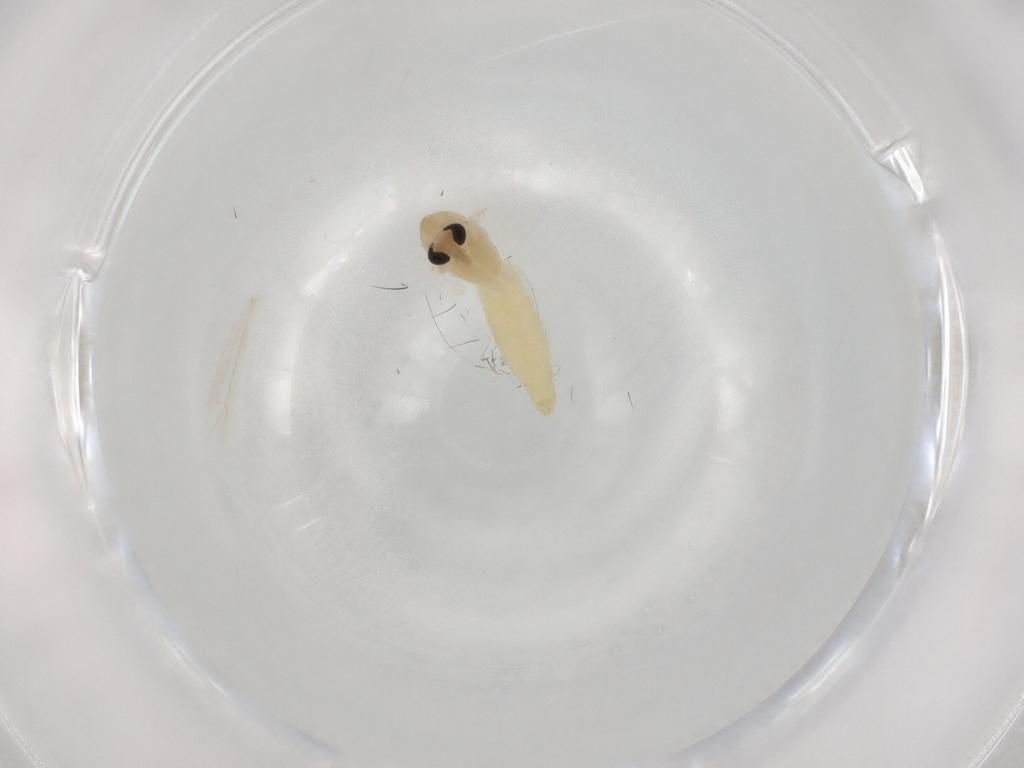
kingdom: Animalia
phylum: Arthropoda
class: Insecta
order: Diptera
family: Chironomidae
